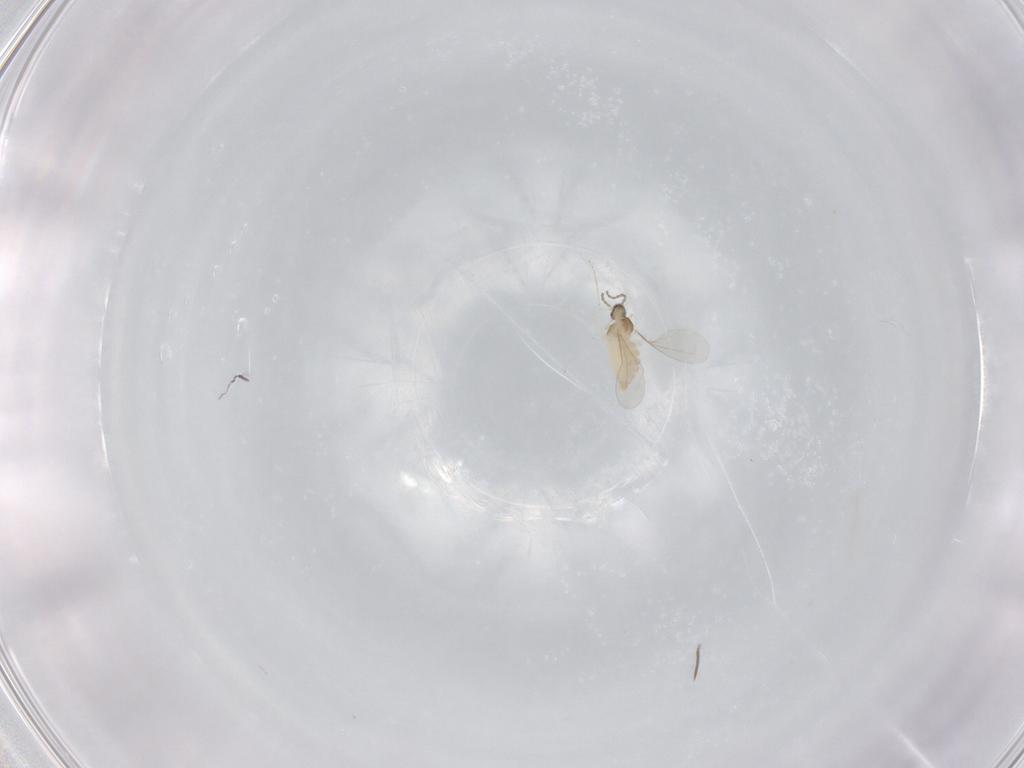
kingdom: Animalia
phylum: Arthropoda
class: Insecta
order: Diptera
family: Cecidomyiidae
